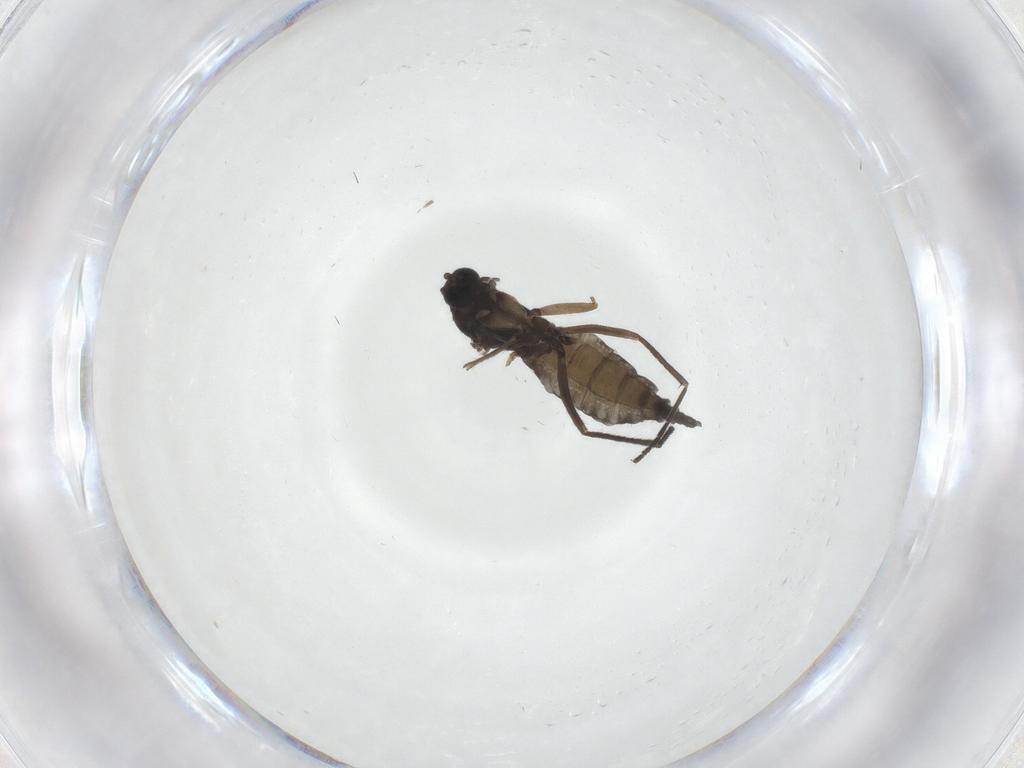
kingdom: Animalia
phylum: Arthropoda
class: Insecta
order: Diptera
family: Sciaridae
